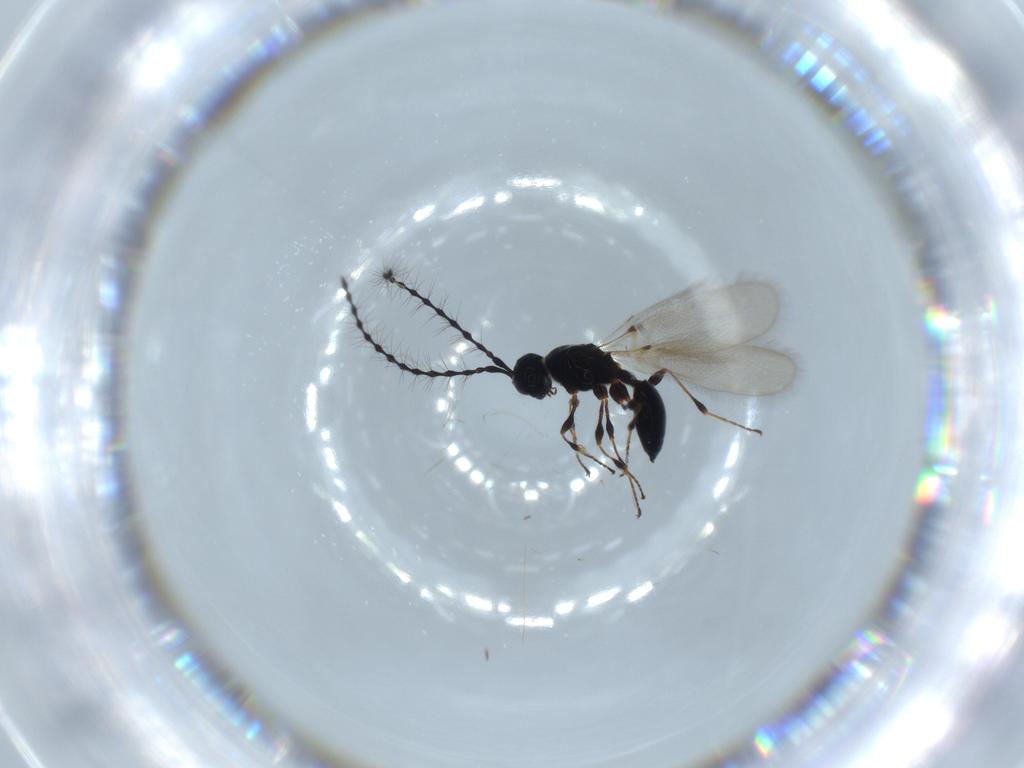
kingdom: Animalia
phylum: Arthropoda
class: Insecta
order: Hymenoptera
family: Diapriidae
